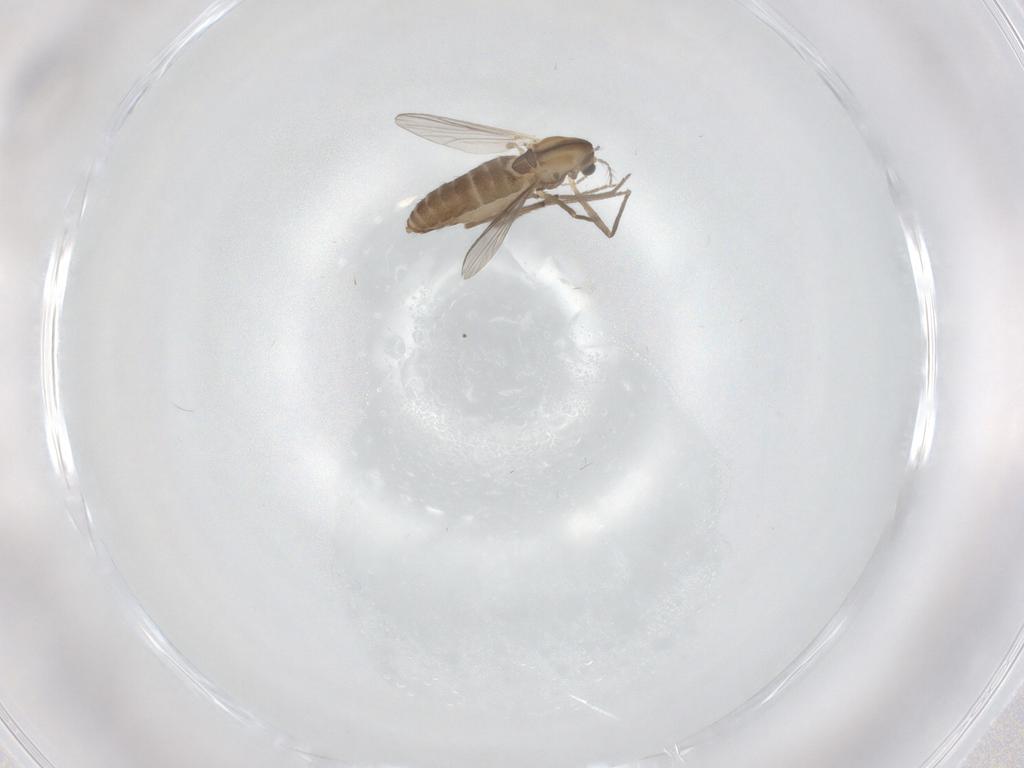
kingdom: Animalia
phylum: Arthropoda
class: Insecta
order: Diptera
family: Chironomidae
